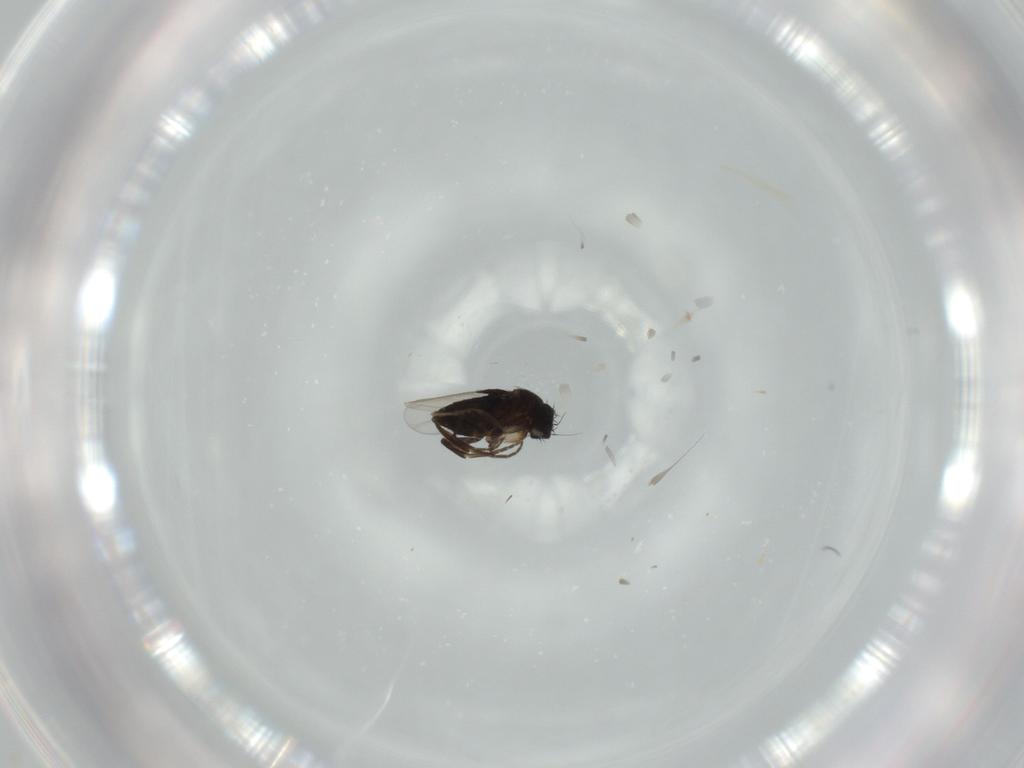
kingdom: Animalia
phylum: Arthropoda
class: Insecta
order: Diptera
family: Phoridae
